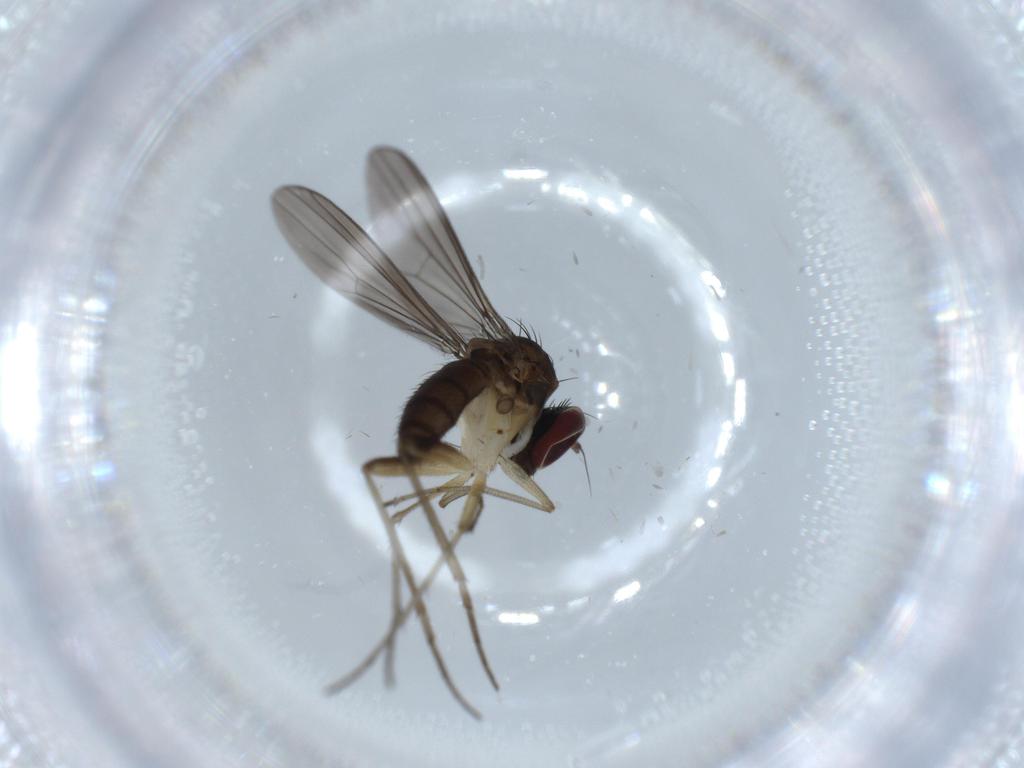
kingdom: Animalia
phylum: Arthropoda
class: Insecta
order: Diptera
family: Dolichopodidae
